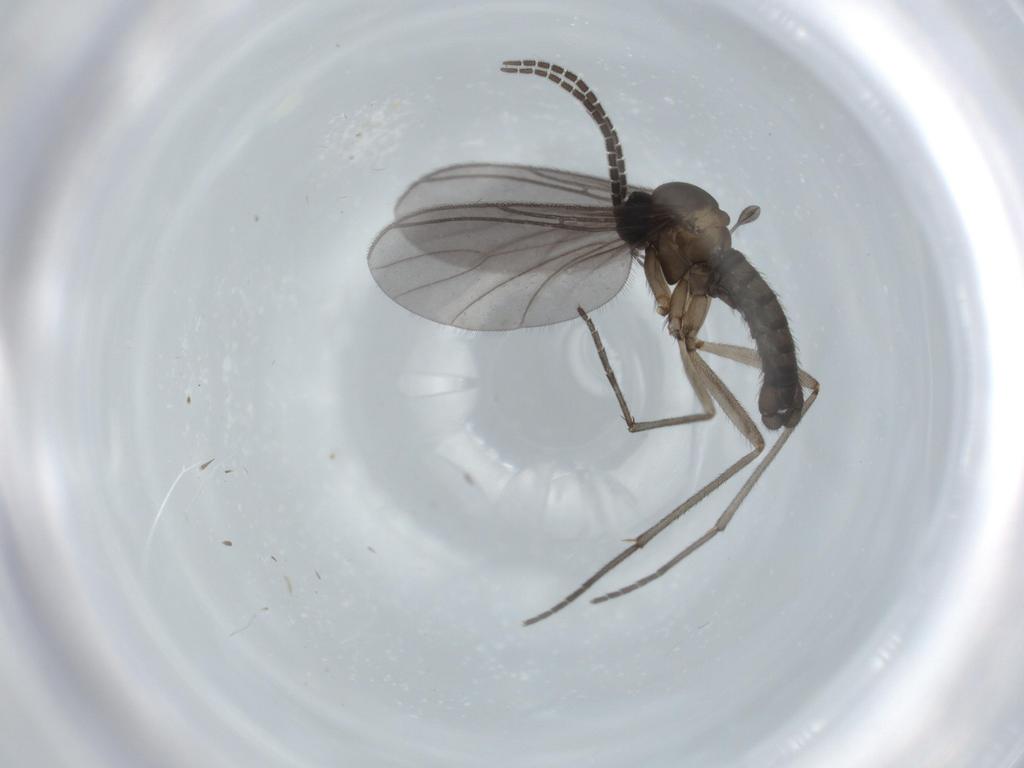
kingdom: Animalia
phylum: Arthropoda
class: Insecta
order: Diptera
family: Sciaridae
